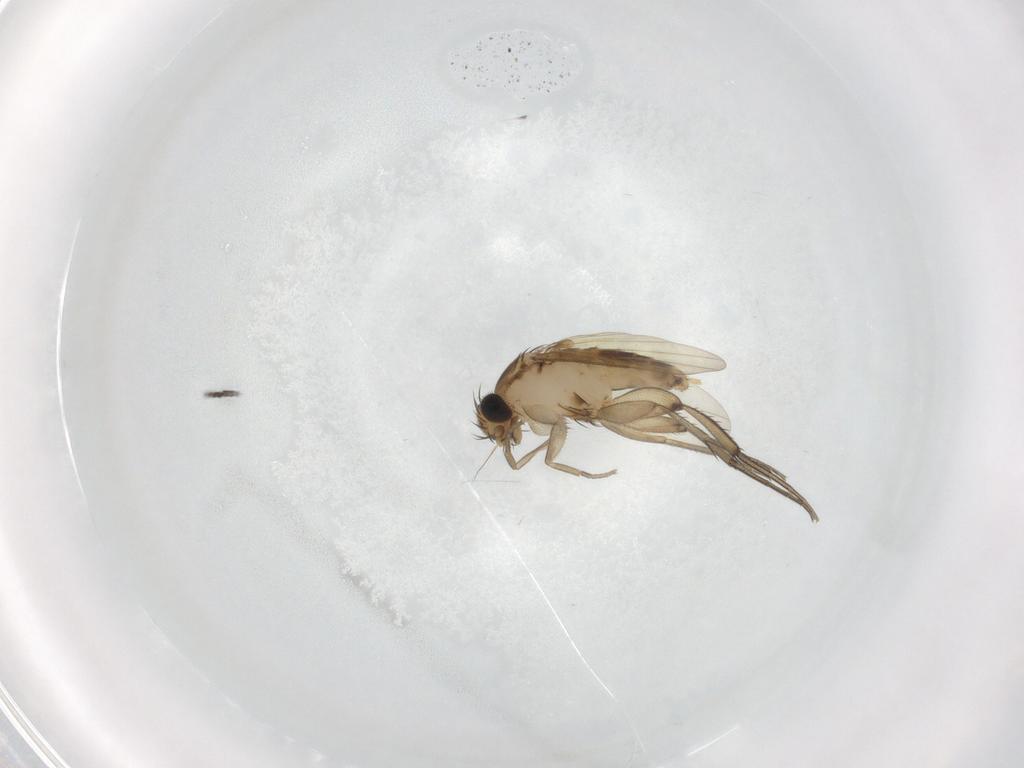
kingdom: Animalia
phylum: Arthropoda
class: Insecta
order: Diptera
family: Phoridae
